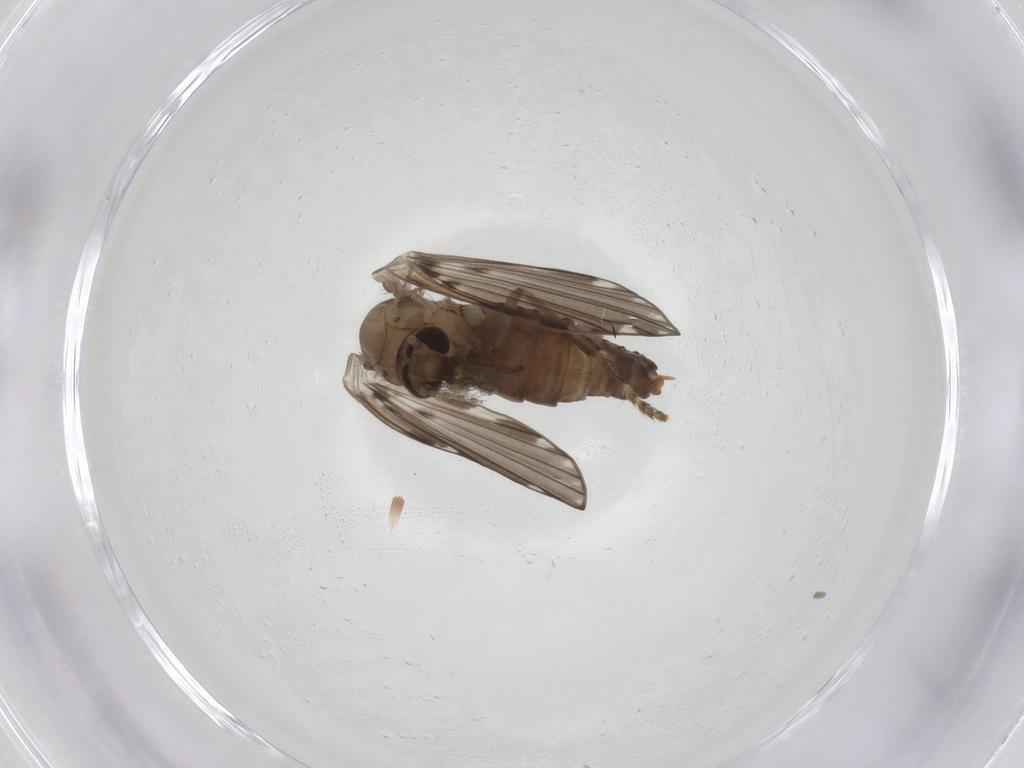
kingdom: Animalia
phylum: Arthropoda
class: Insecta
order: Diptera
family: Psychodidae
